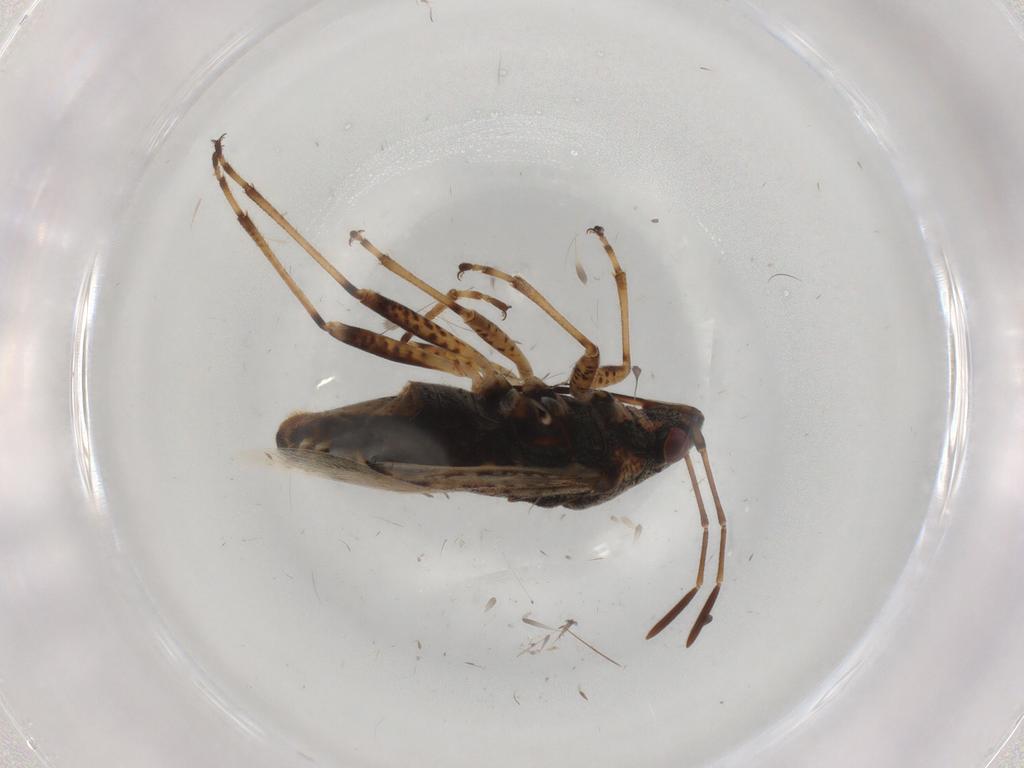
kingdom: Animalia
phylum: Arthropoda
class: Insecta
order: Hemiptera
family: Lygaeidae
